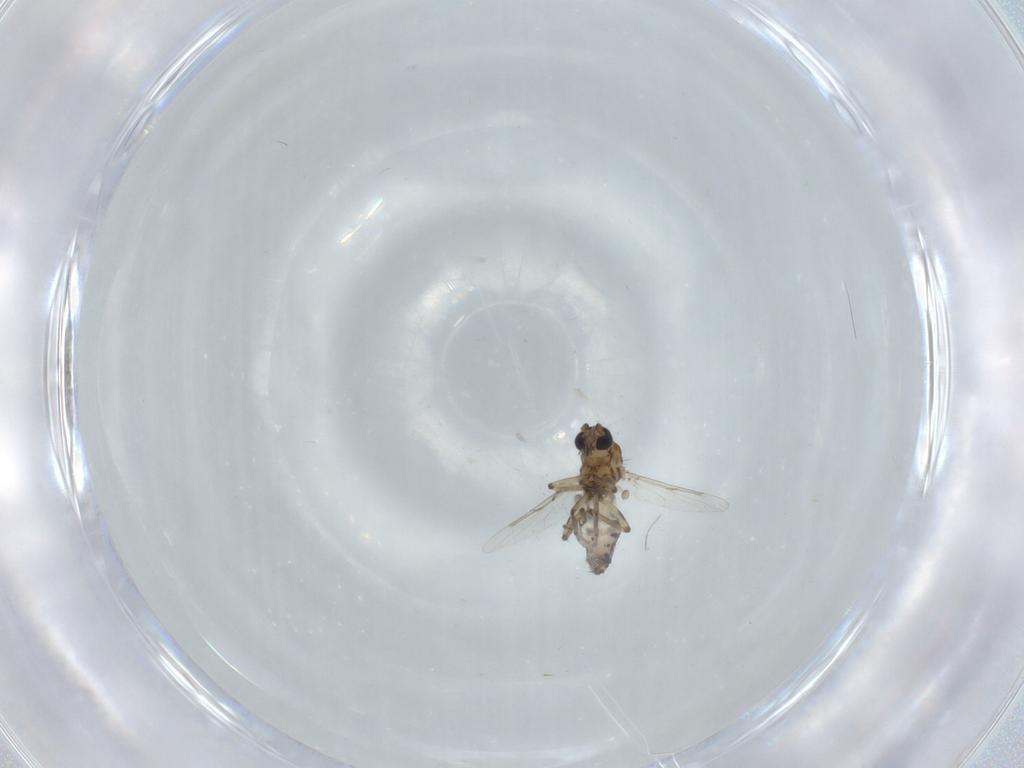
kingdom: Animalia
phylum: Arthropoda
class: Insecta
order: Diptera
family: Ceratopogonidae
